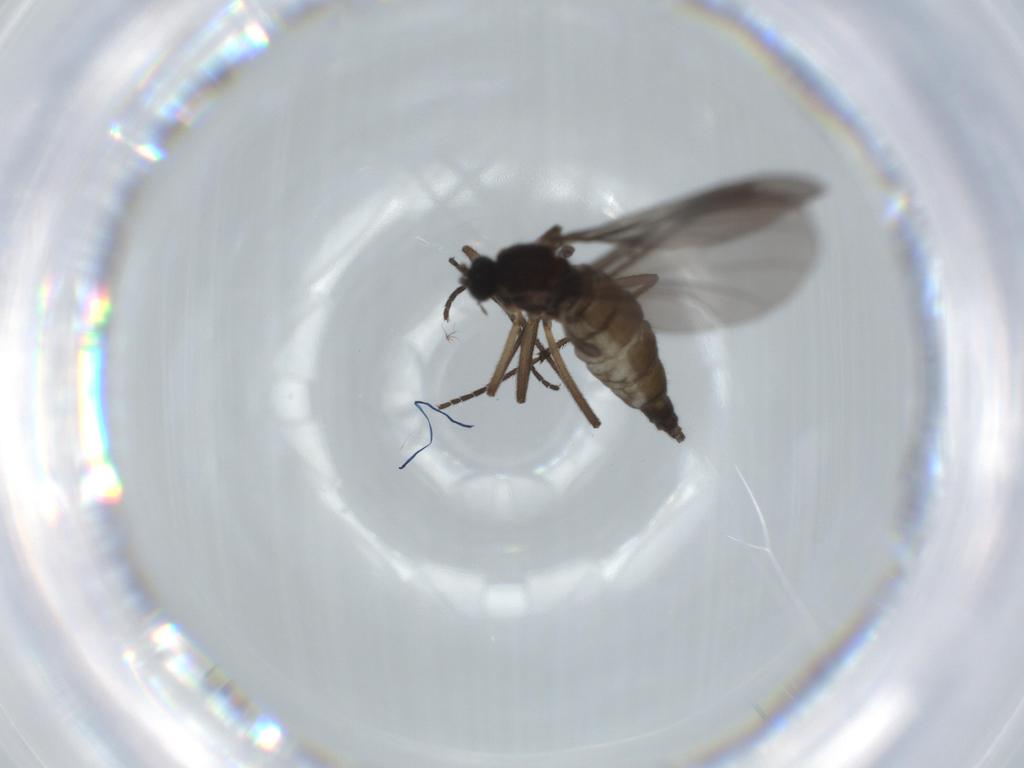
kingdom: Animalia
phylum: Arthropoda
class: Insecta
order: Diptera
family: Sciaridae
